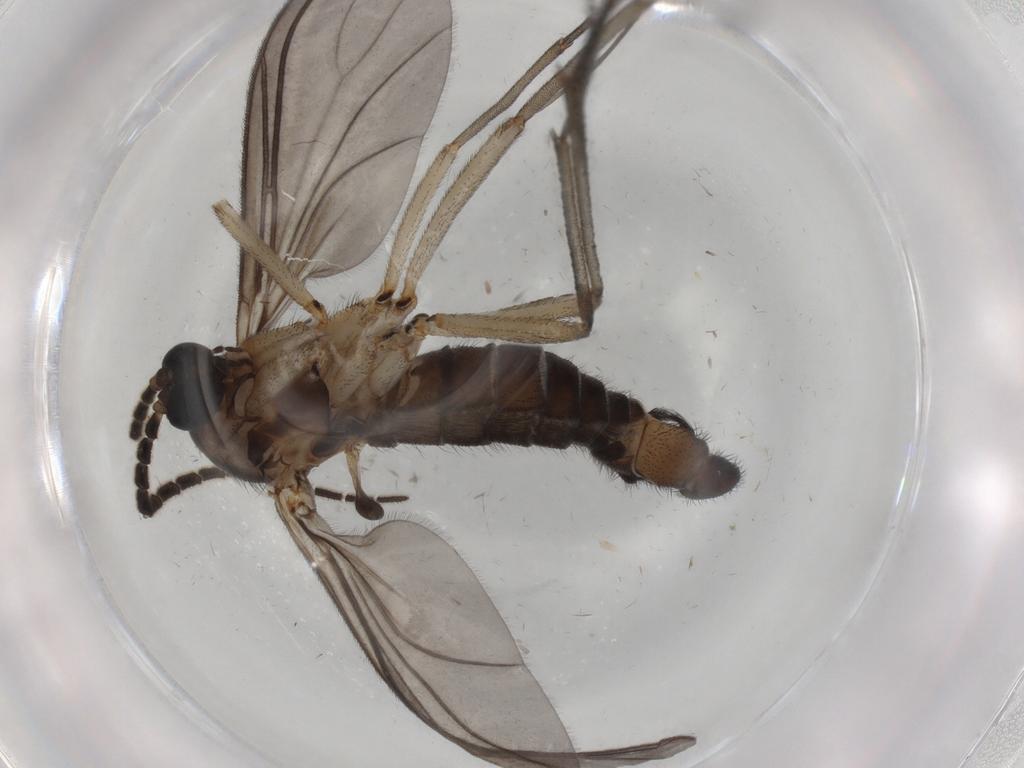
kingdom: Animalia
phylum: Arthropoda
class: Insecta
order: Diptera
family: Sciaridae
